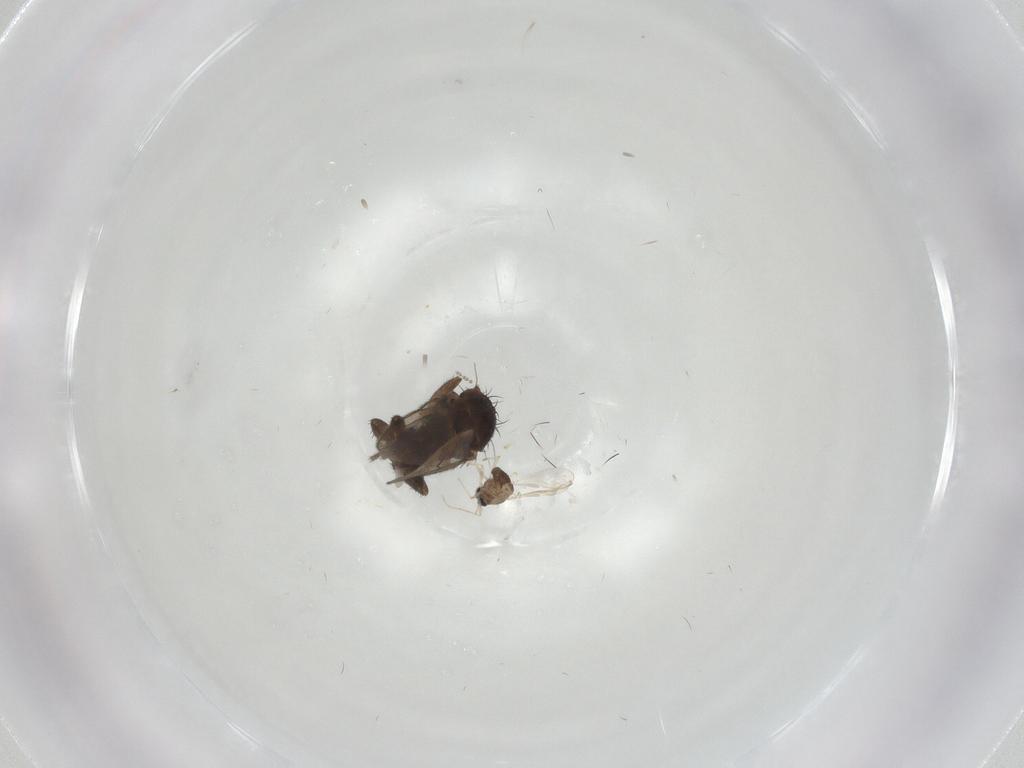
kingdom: Animalia
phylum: Arthropoda
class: Insecta
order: Diptera
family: Chironomidae
